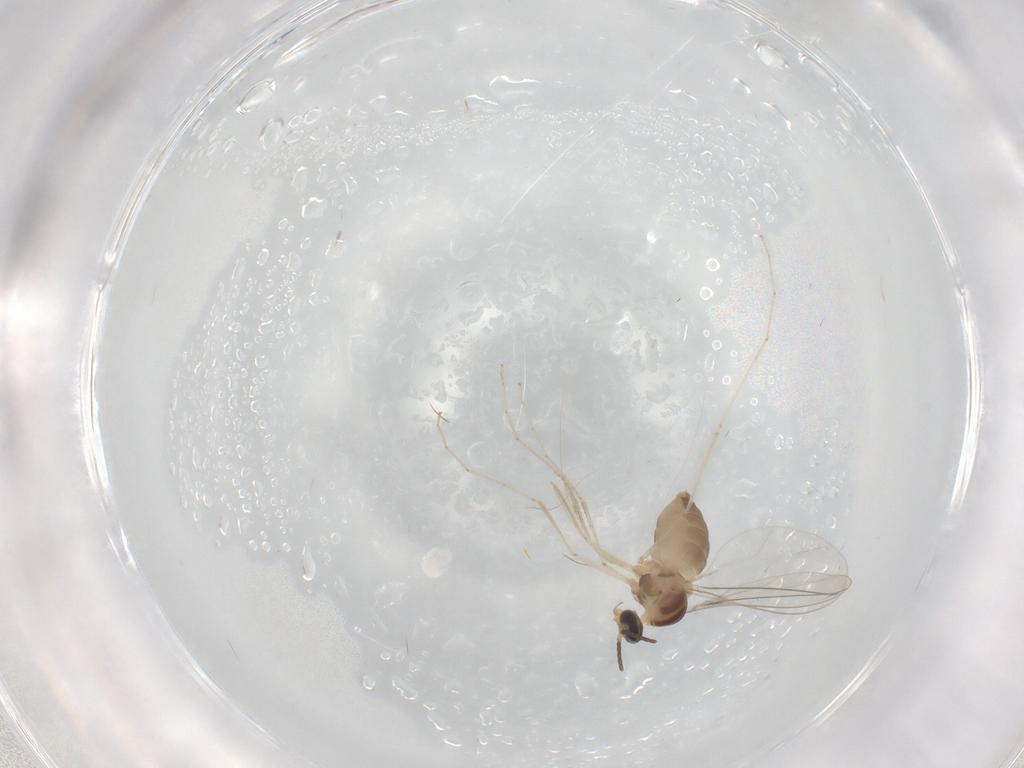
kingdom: Animalia
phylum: Arthropoda
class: Insecta
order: Diptera
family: Cecidomyiidae
